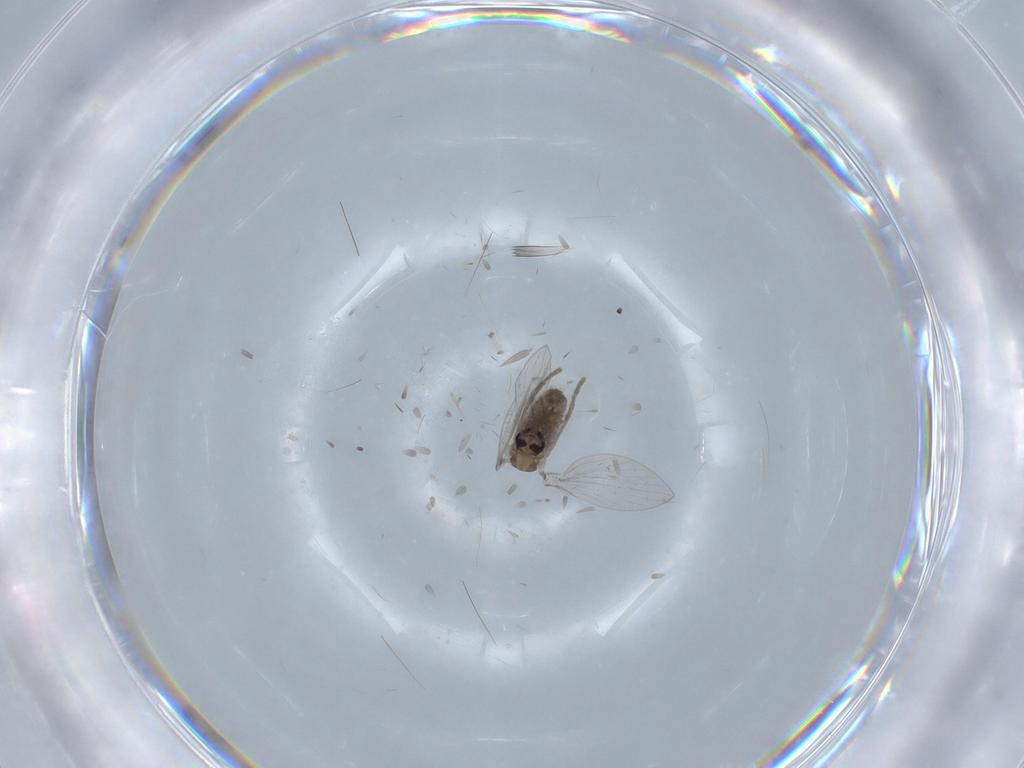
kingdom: Animalia
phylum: Arthropoda
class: Insecta
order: Diptera
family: Psychodidae
